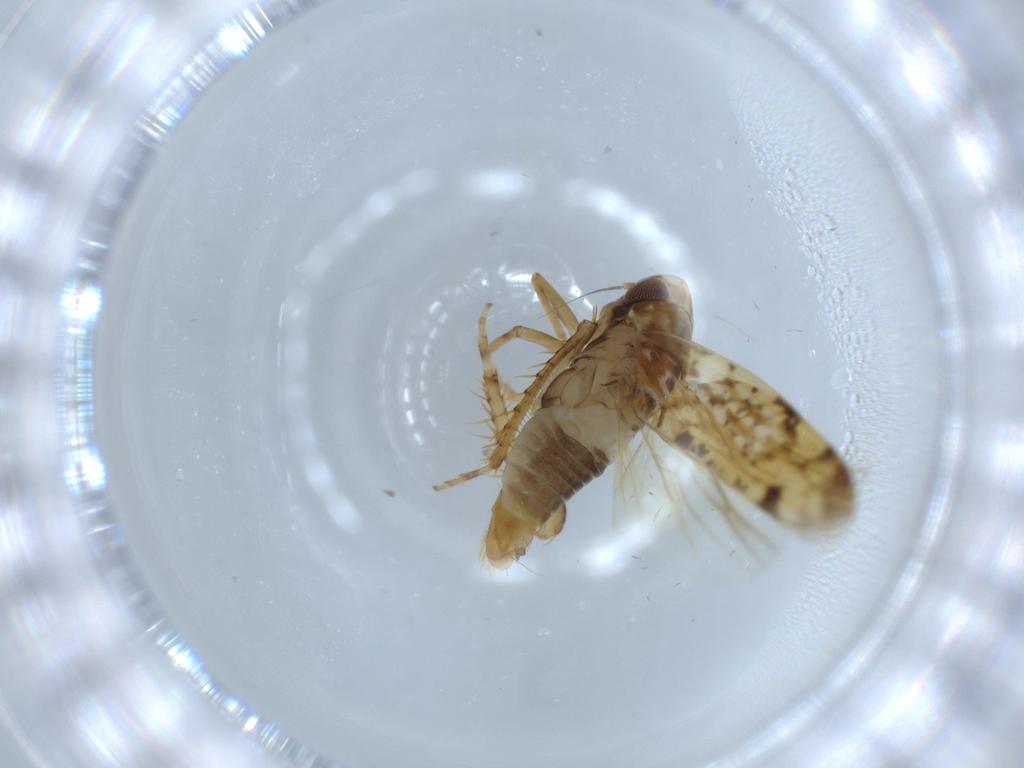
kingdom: Animalia
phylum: Arthropoda
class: Insecta
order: Hemiptera
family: Cicadellidae
